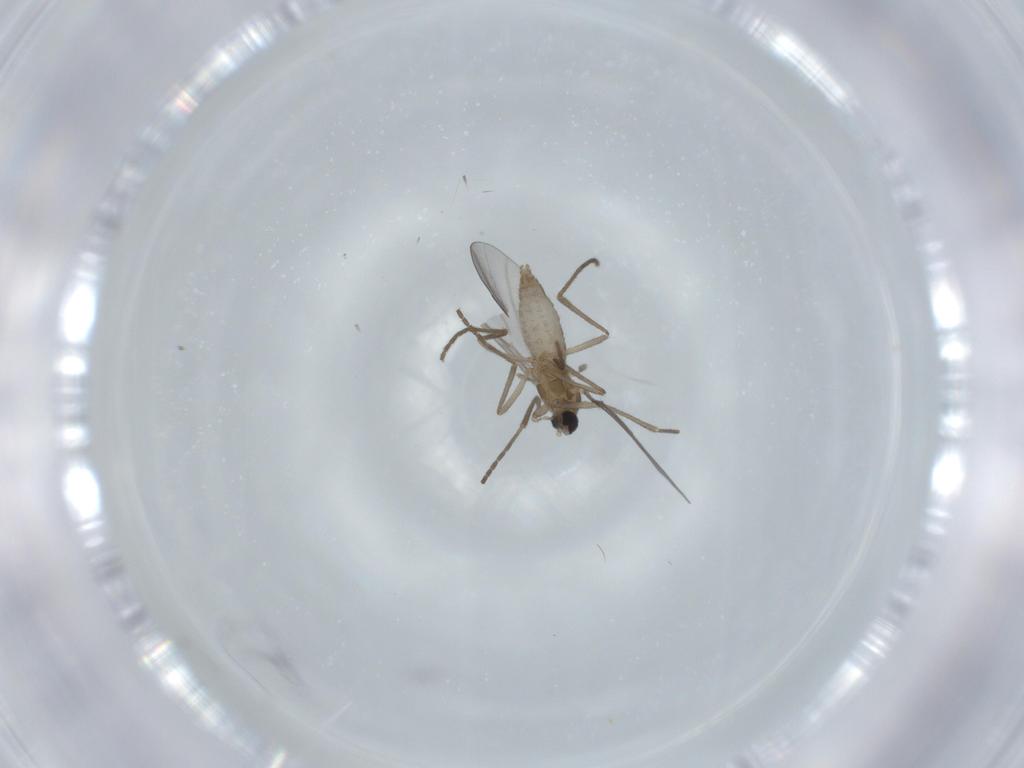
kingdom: Animalia
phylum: Arthropoda
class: Insecta
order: Diptera
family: Cecidomyiidae
